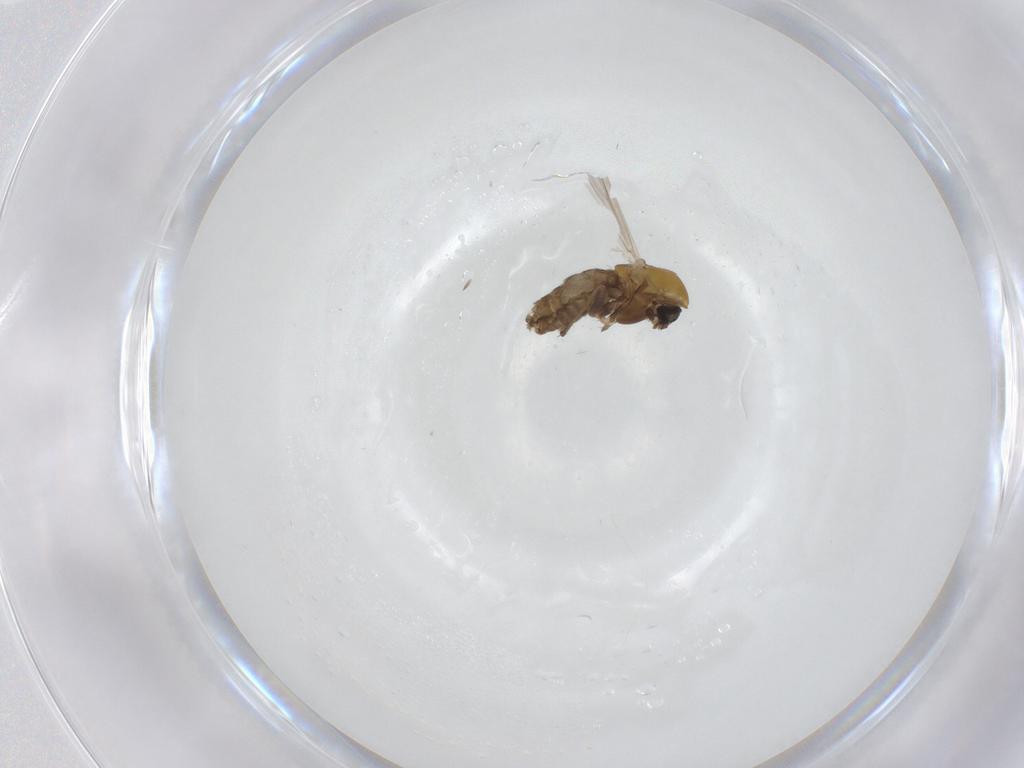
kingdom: Animalia
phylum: Arthropoda
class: Insecta
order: Diptera
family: Chironomidae
